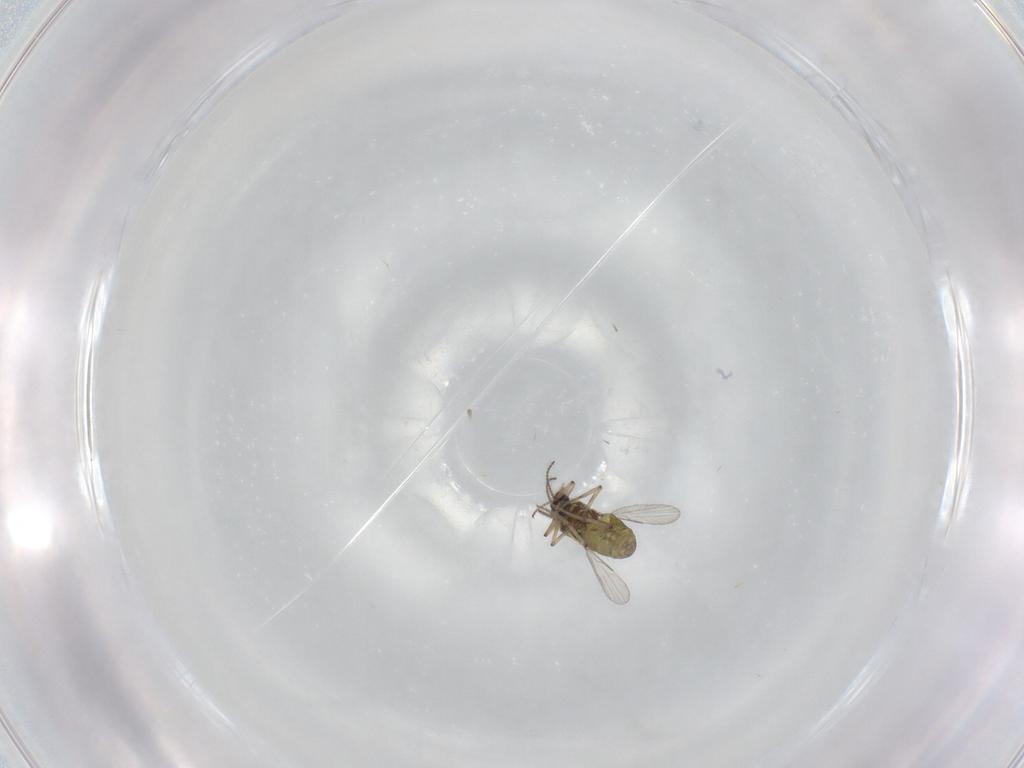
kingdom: Animalia
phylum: Arthropoda
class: Insecta
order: Diptera
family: Ceratopogonidae
